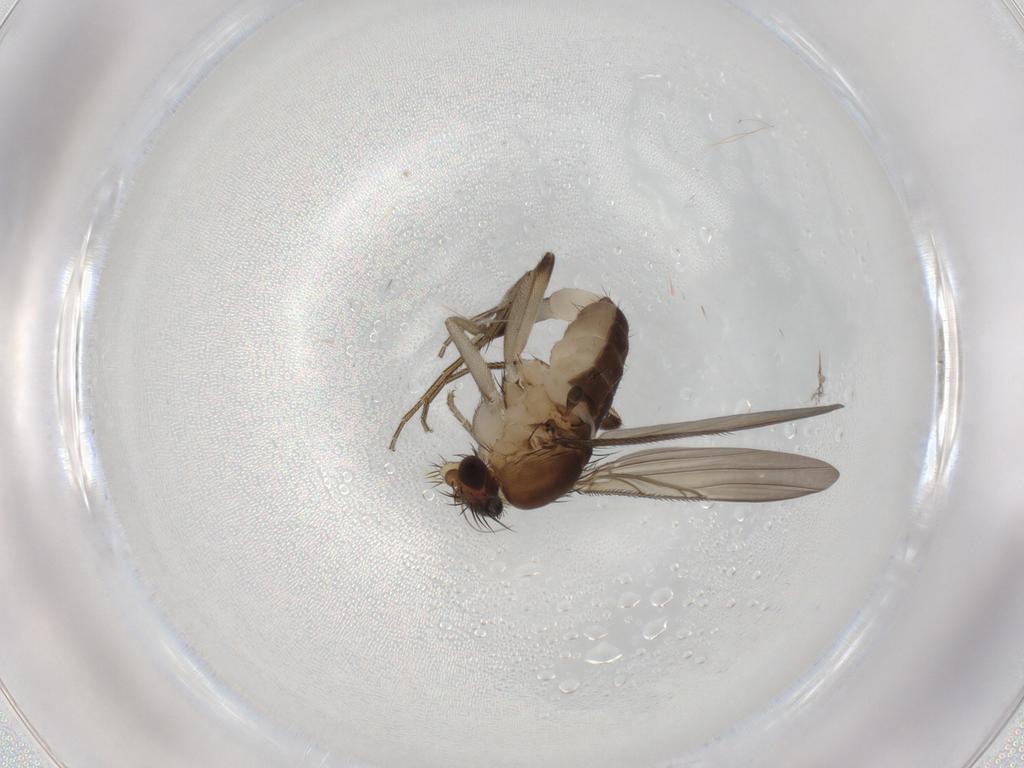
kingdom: Animalia
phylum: Arthropoda
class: Insecta
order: Diptera
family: Phoridae
